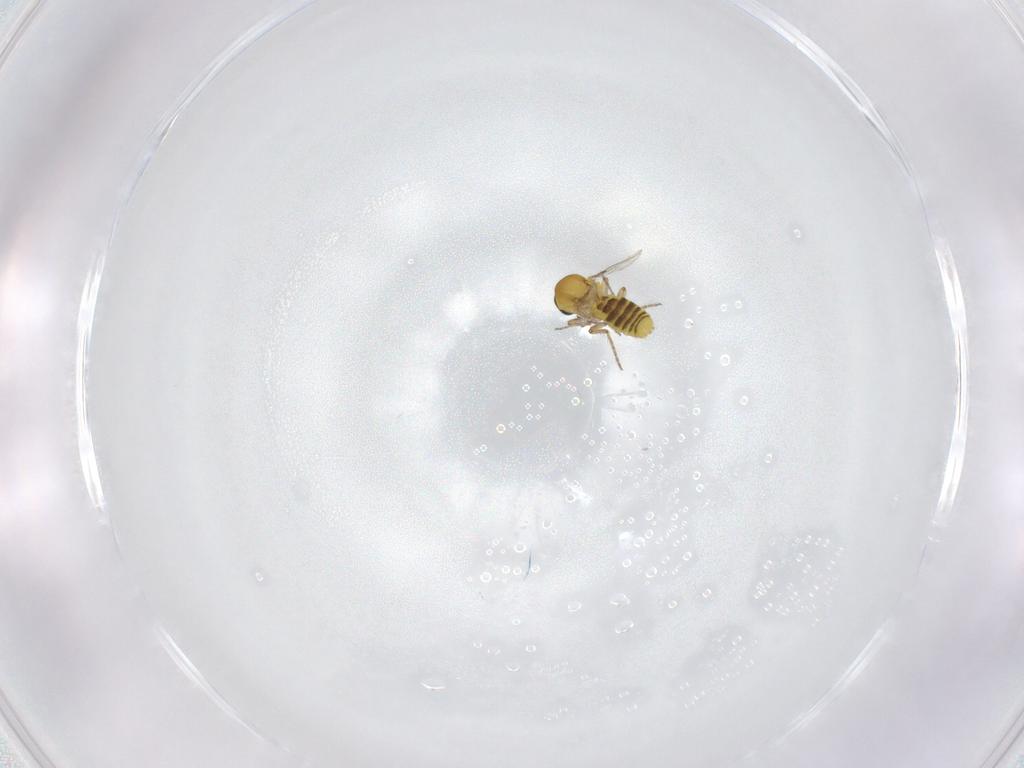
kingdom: Animalia
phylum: Arthropoda
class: Insecta
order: Diptera
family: Ceratopogonidae
